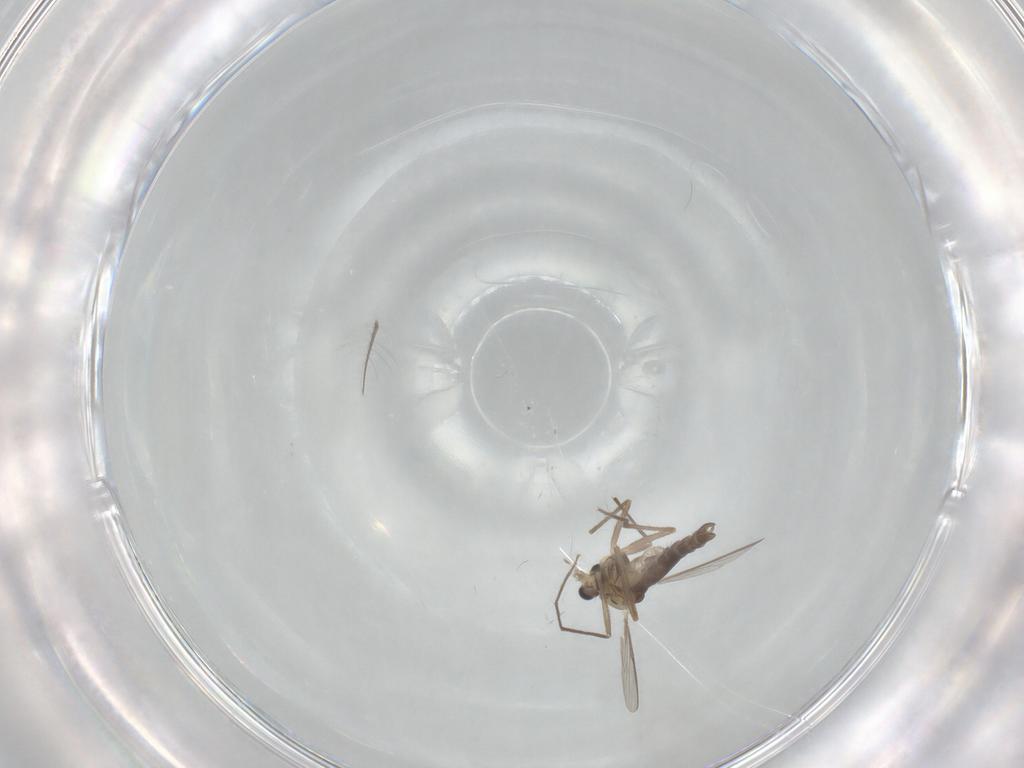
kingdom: Animalia
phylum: Arthropoda
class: Insecta
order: Diptera
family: Chironomidae
